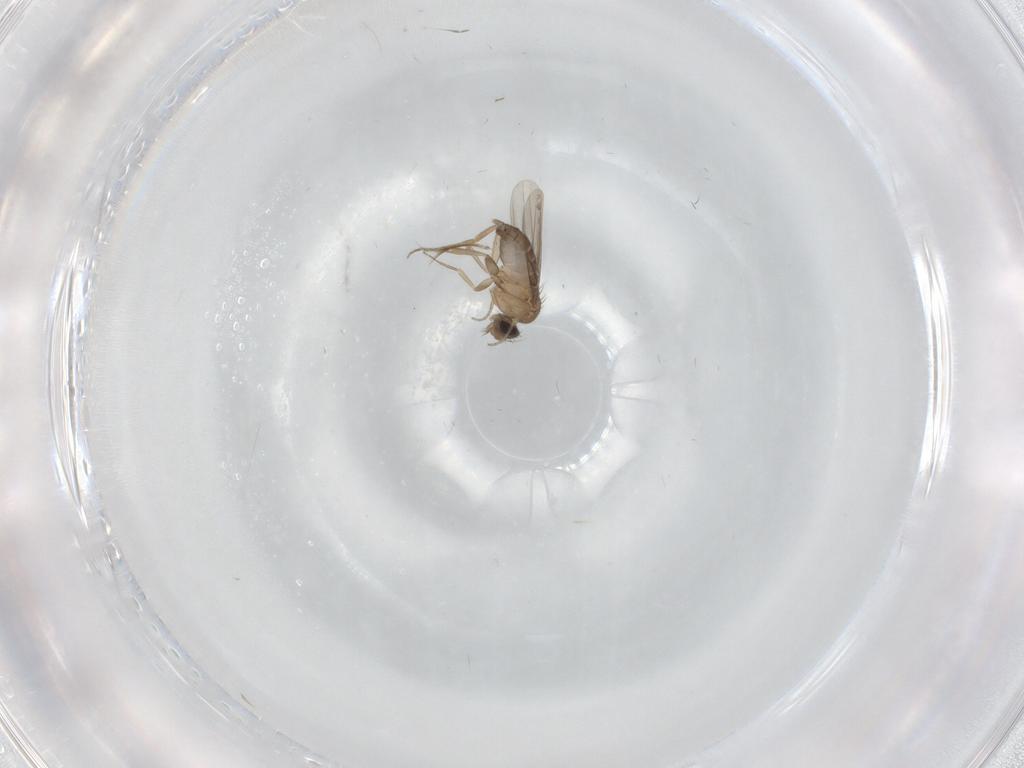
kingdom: Animalia
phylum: Arthropoda
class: Insecta
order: Diptera
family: Ceratopogonidae
